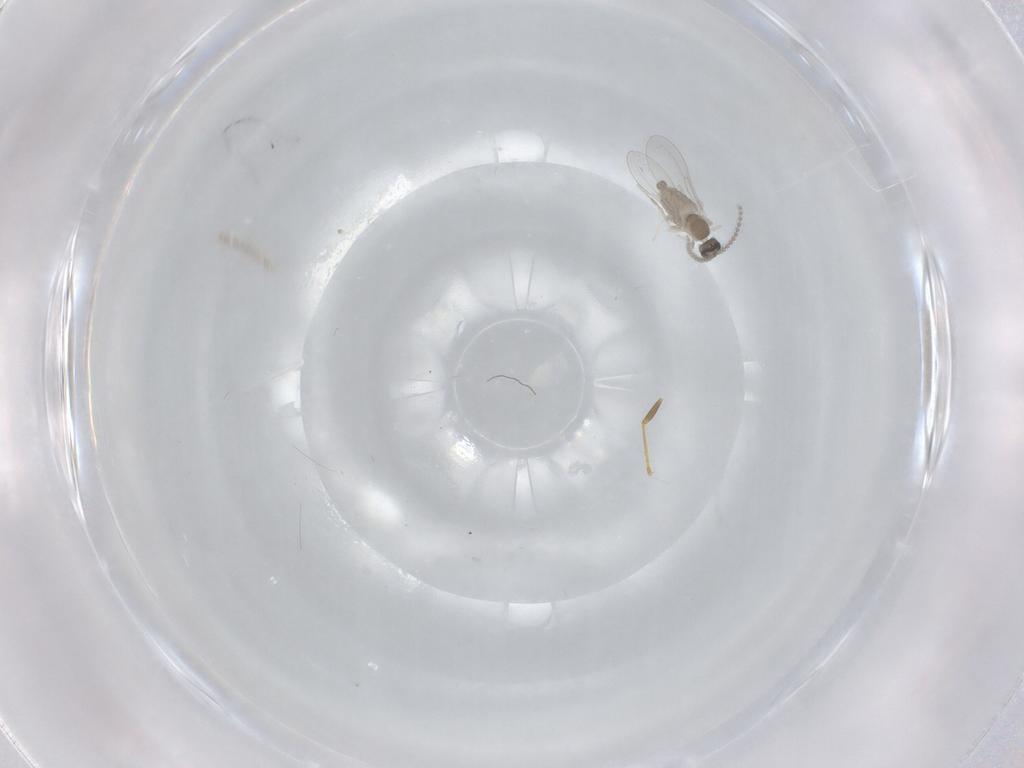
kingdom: Animalia
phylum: Arthropoda
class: Insecta
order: Diptera
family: Cecidomyiidae
